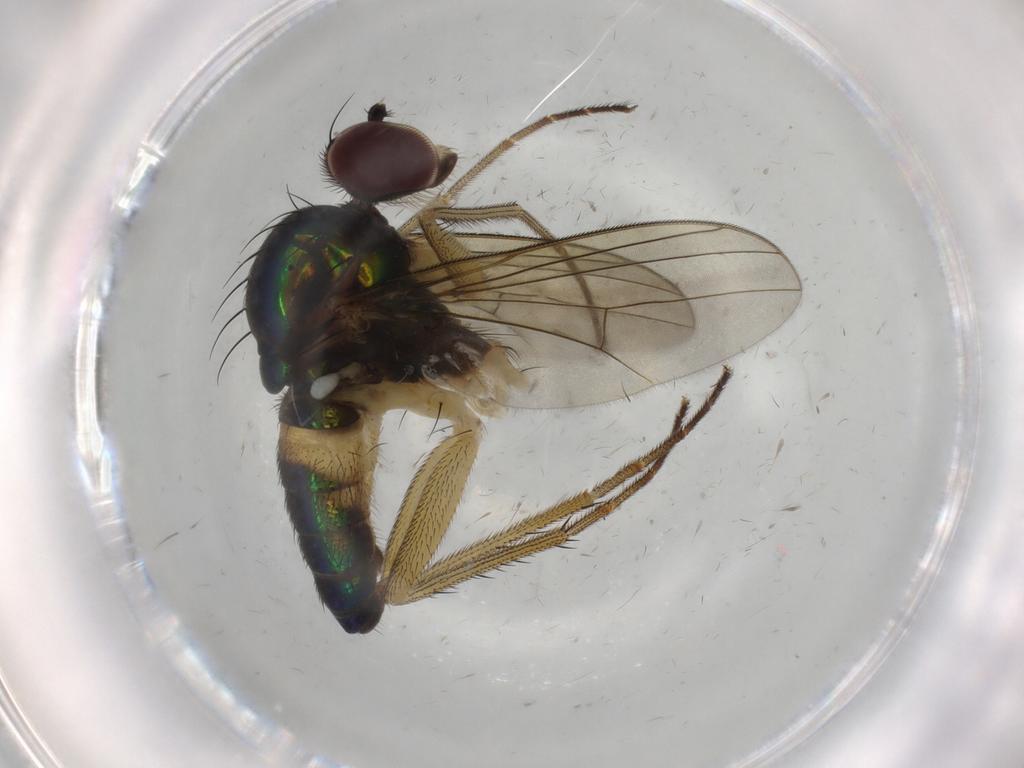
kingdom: Animalia
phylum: Arthropoda
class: Insecta
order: Diptera
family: Dolichopodidae
